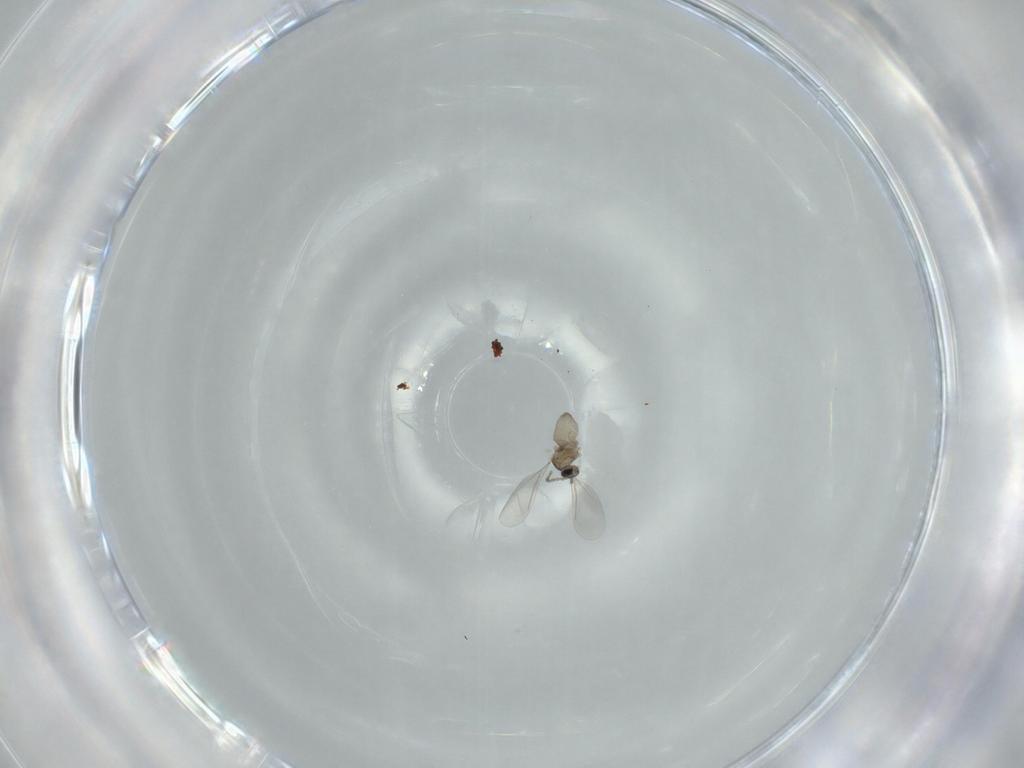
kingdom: Animalia
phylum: Arthropoda
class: Insecta
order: Diptera
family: Cecidomyiidae
